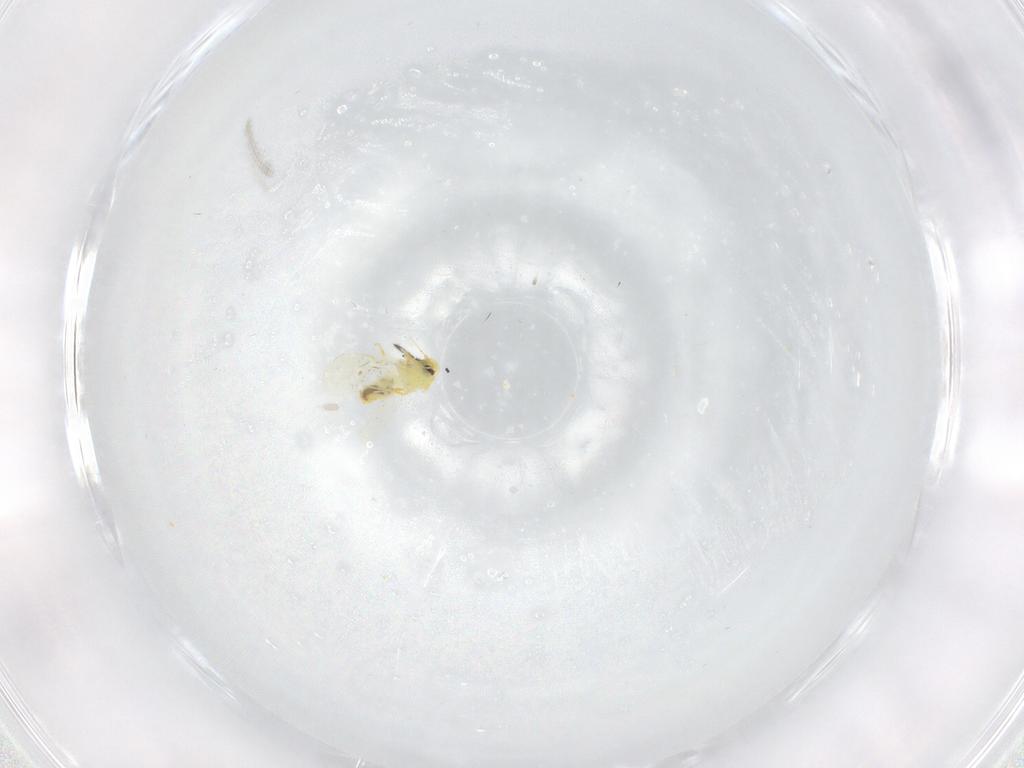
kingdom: Animalia
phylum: Arthropoda
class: Insecta
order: Hemiptera
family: Aleyrodidae
